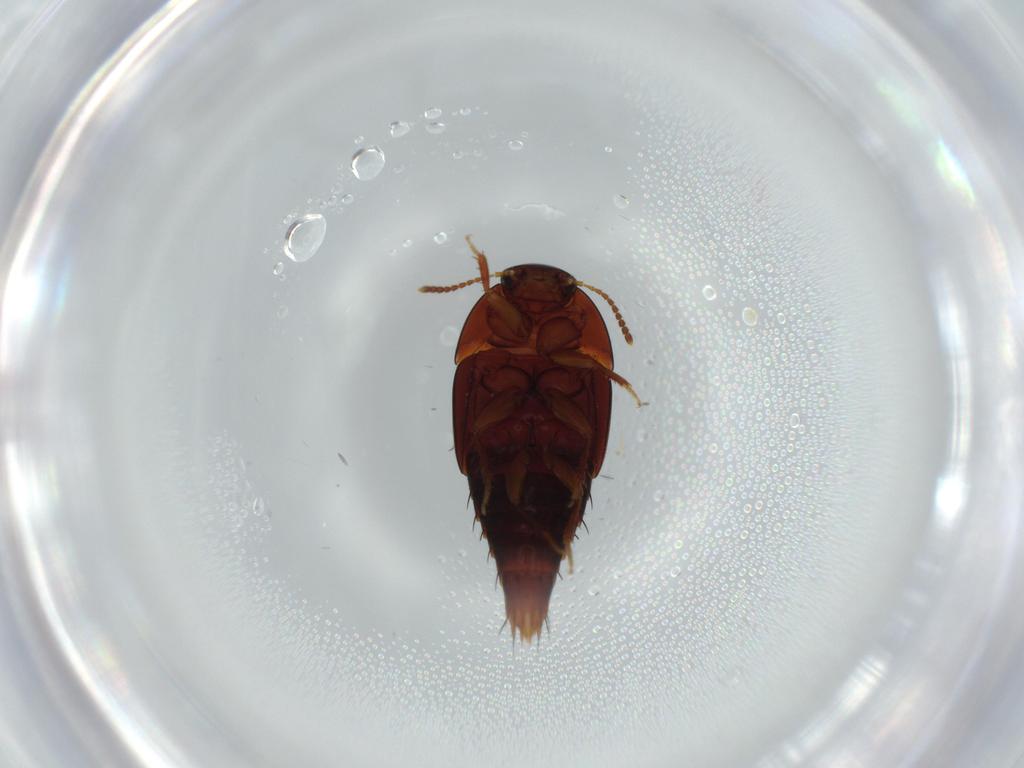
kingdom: Animalia
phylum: Arthropoda
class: Insecta
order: Coleoptera
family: Staphylinidae
